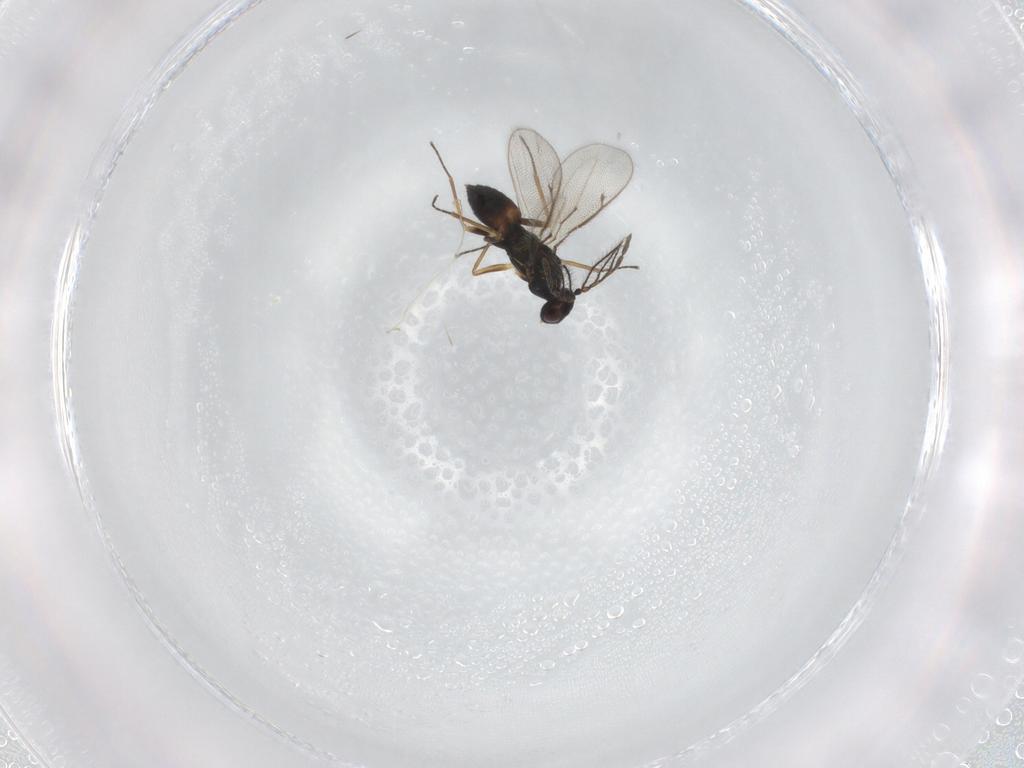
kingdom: Animalia
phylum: Arthropoda
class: Insecta
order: Hymenoptera
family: Eulophidae
